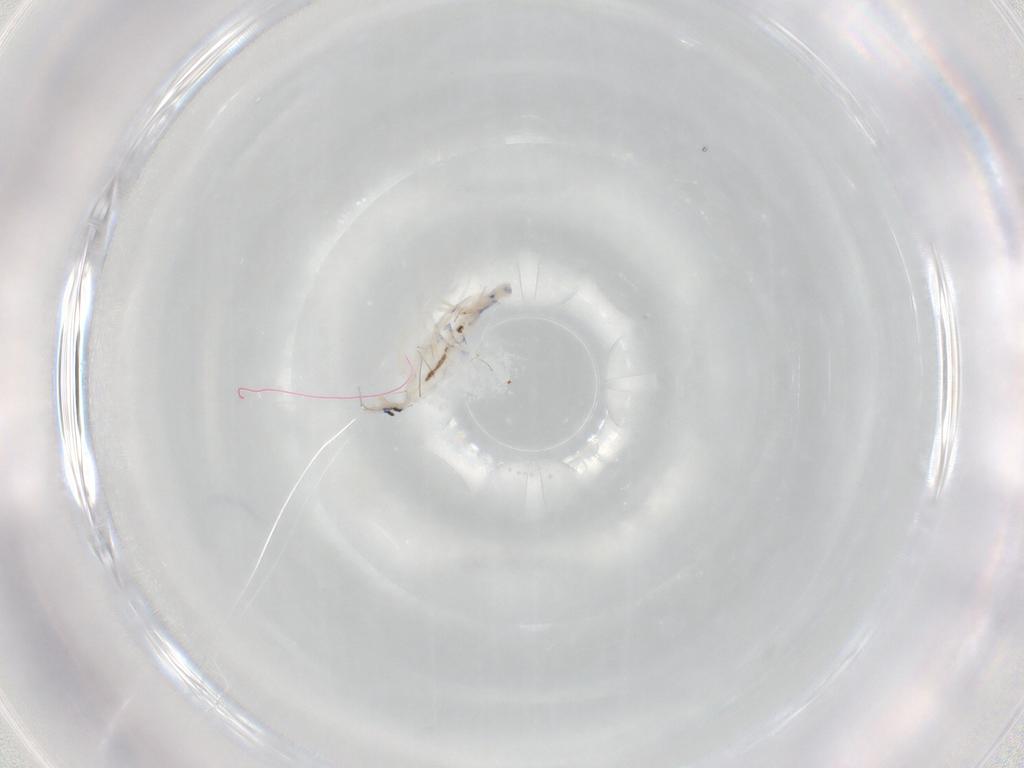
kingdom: Animalia
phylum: Arthropoda
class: Collembola
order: Entomobryomorpha
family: Entomobryidae
